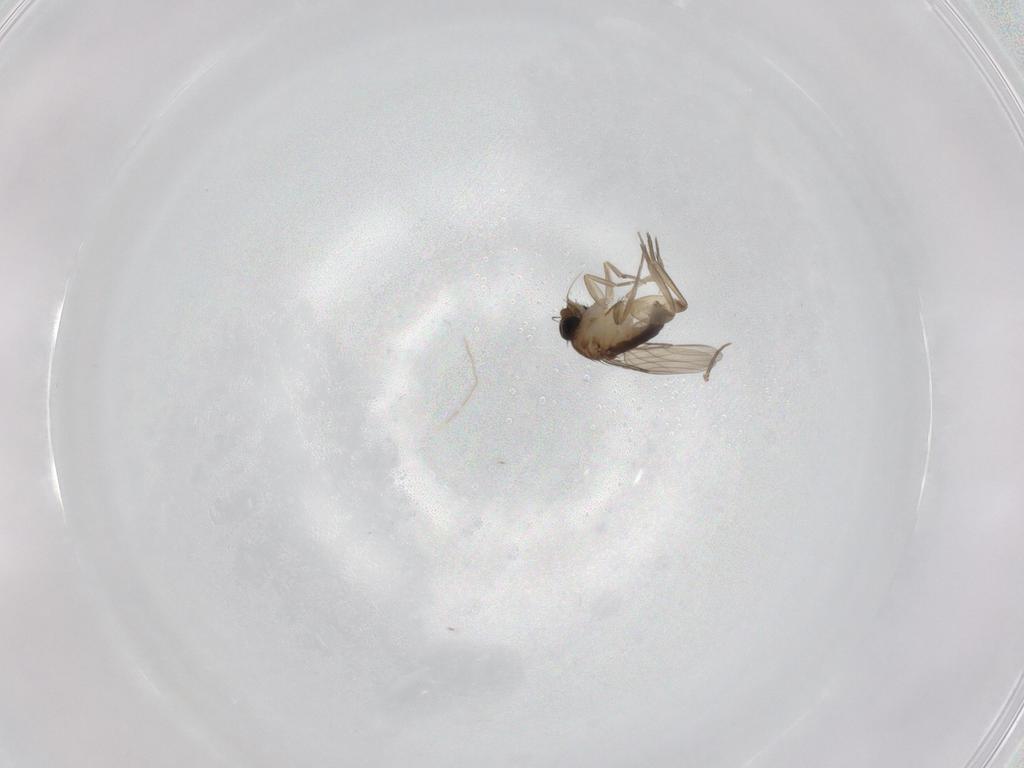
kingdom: Animalia
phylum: Arthropoda
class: Insecta
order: Diptera
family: Phoridae
